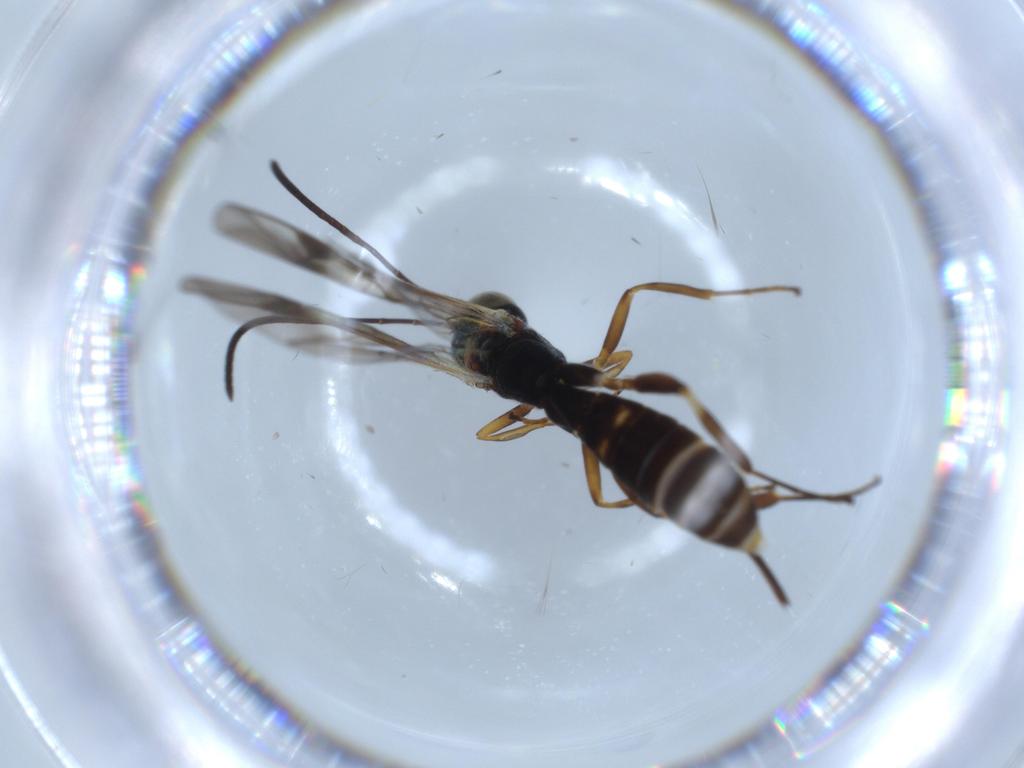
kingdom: Animalia
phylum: Arthropoda
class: Insecta
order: Hymenoptera
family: Ichneumonidae
